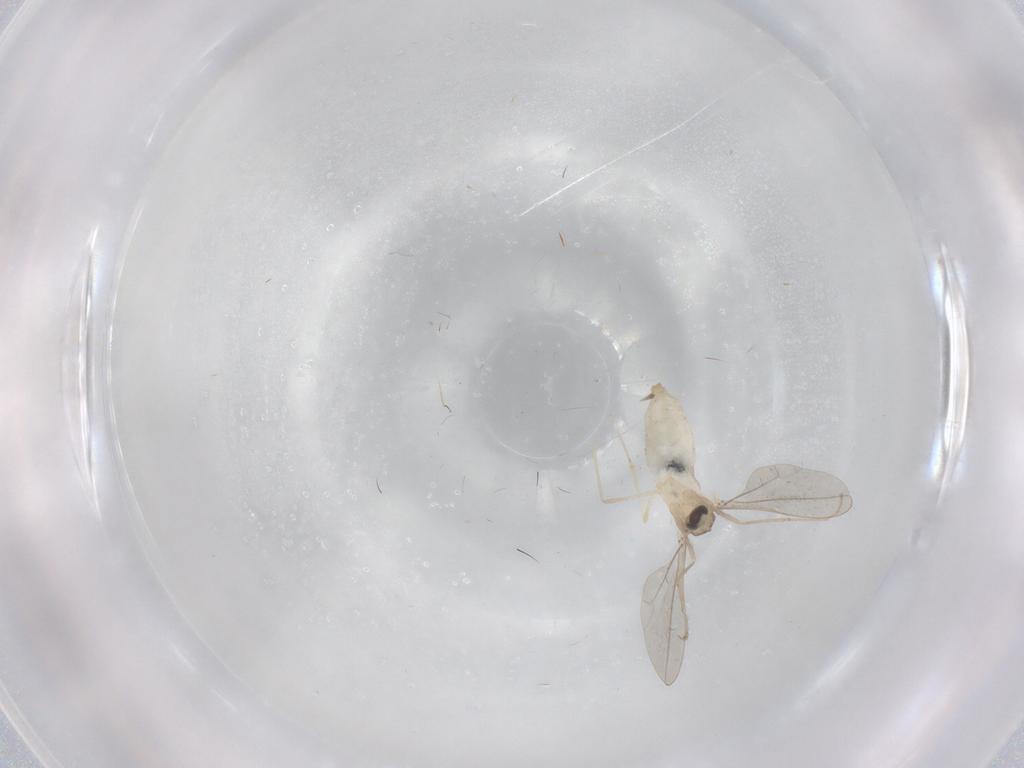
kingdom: Animalia
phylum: Arthropoda
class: Insecta
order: Diptera
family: Cecidomyiidae
